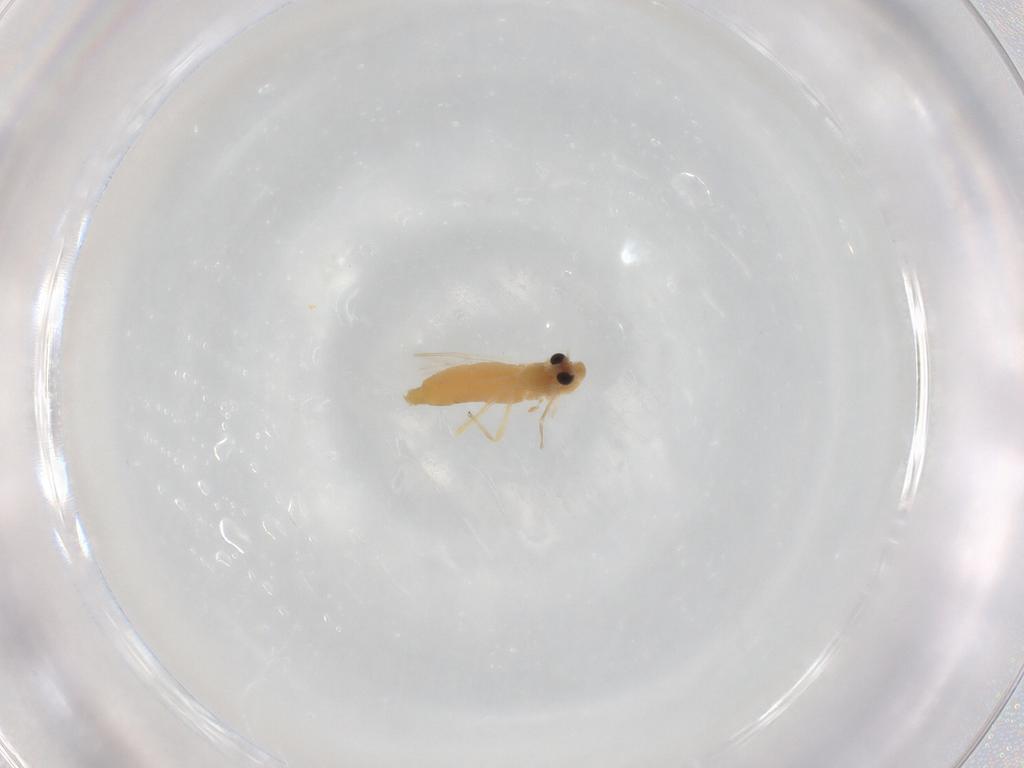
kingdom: Animalia
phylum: Arthropoda
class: Insecta
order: Diptera
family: Chironomidae
